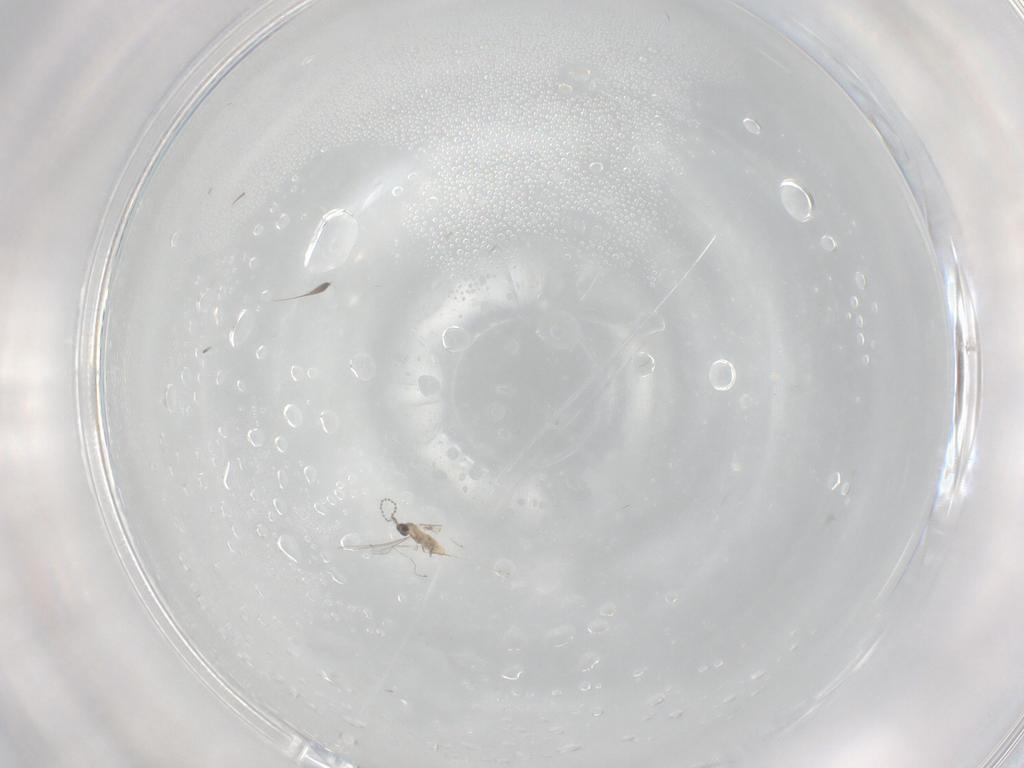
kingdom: Animalia
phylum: Arthropoda
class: Insecta
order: Diptera
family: Cecidomyiidae
